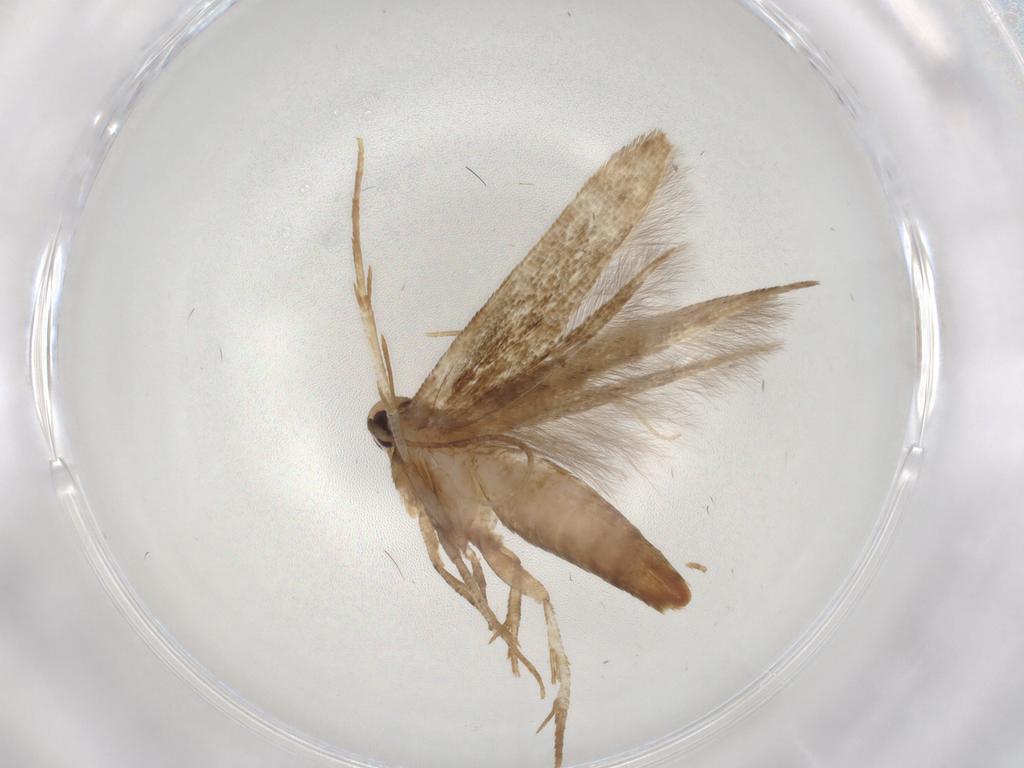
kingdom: Animalia
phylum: Arthropoda
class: Insecta
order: Lepidoptera
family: Cosmopterigidae
